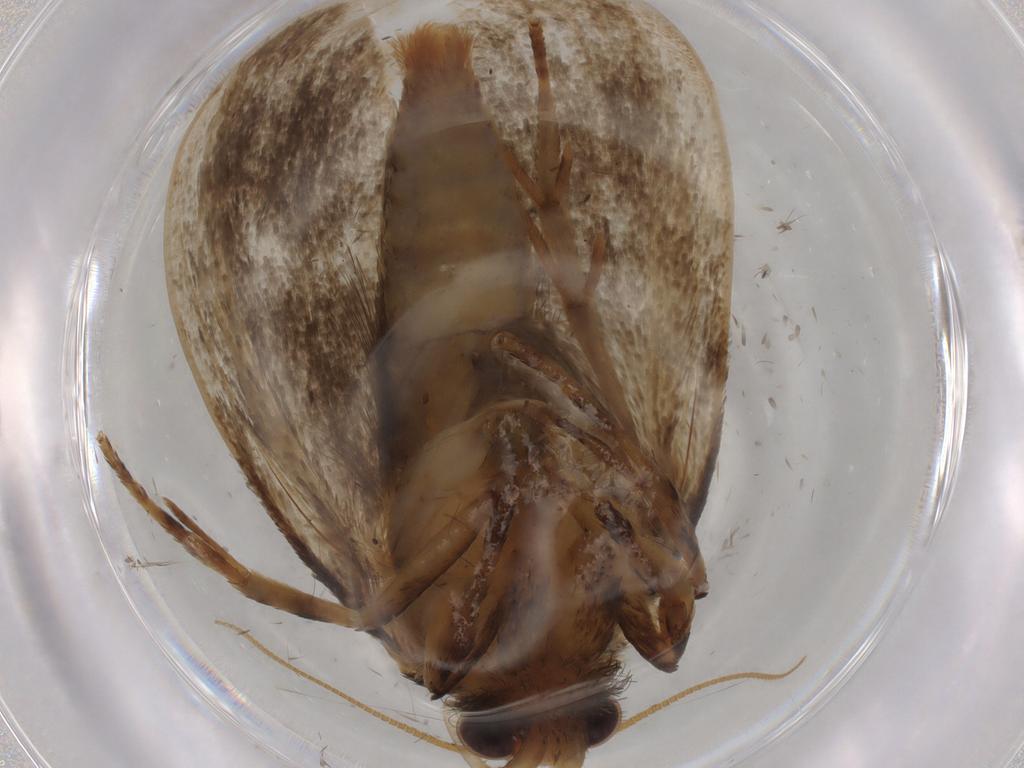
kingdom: Animalia
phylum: Arthropoda
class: Insecta
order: Lepidoptera
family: Tineidae
